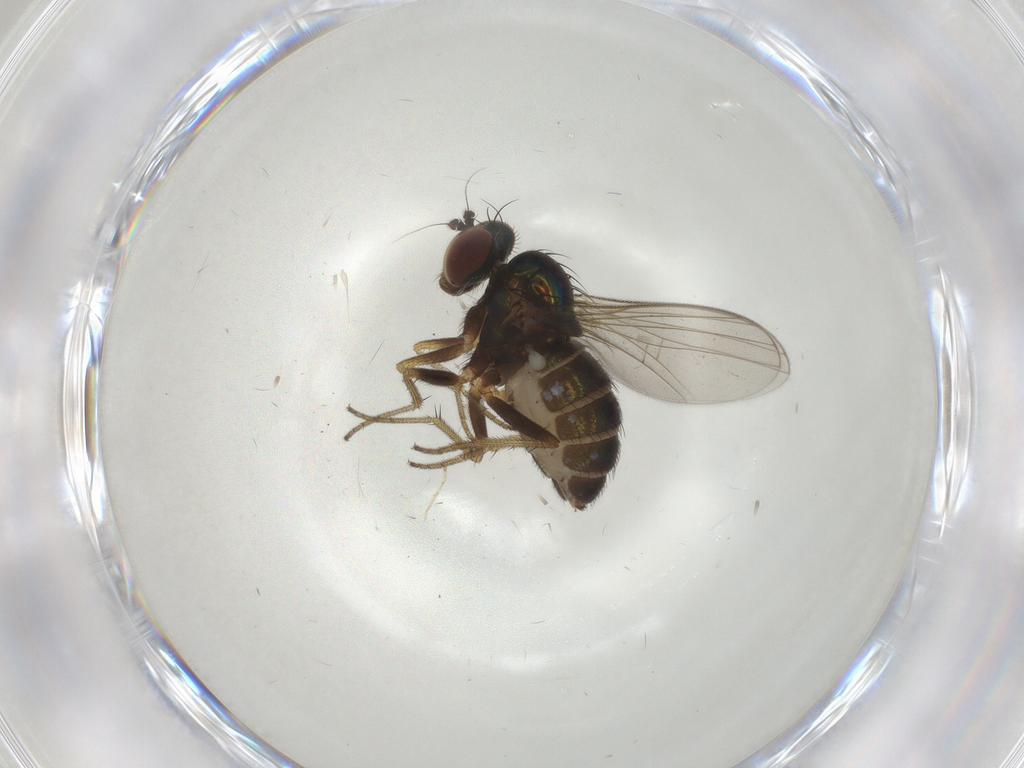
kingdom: Animalia
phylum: Arthropoda
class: Insecta
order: Diptera
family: Dolichopodidae
